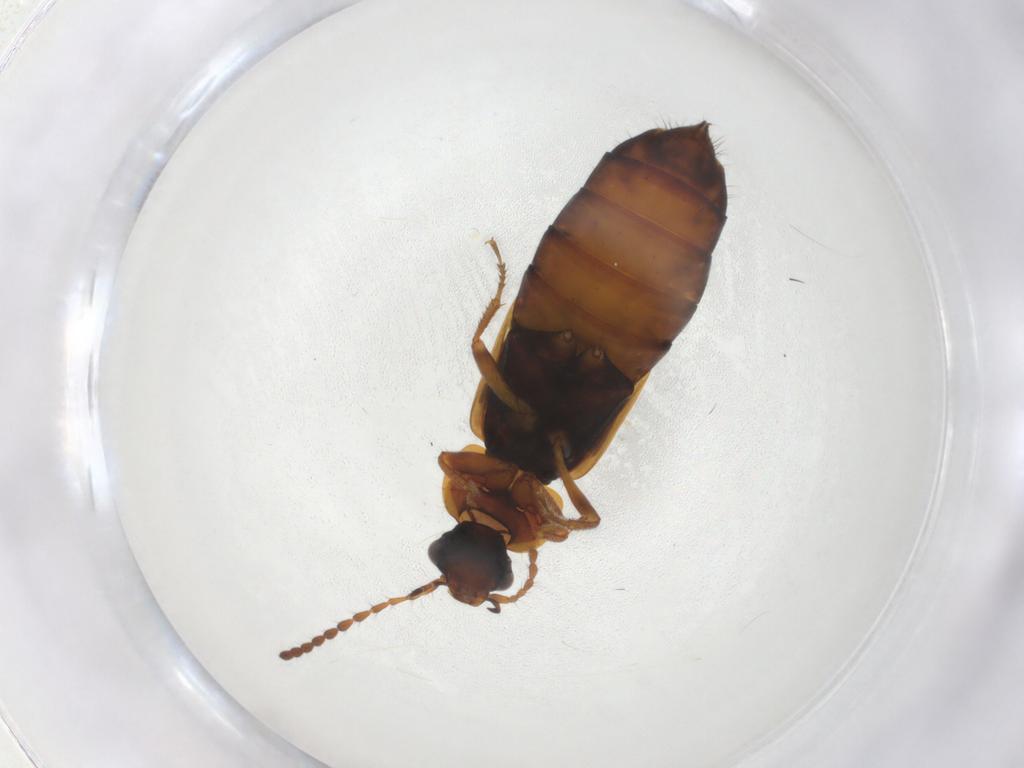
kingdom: Animalia
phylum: Arthropoda
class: Insecta
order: Coleoptera
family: Staphylinidae
